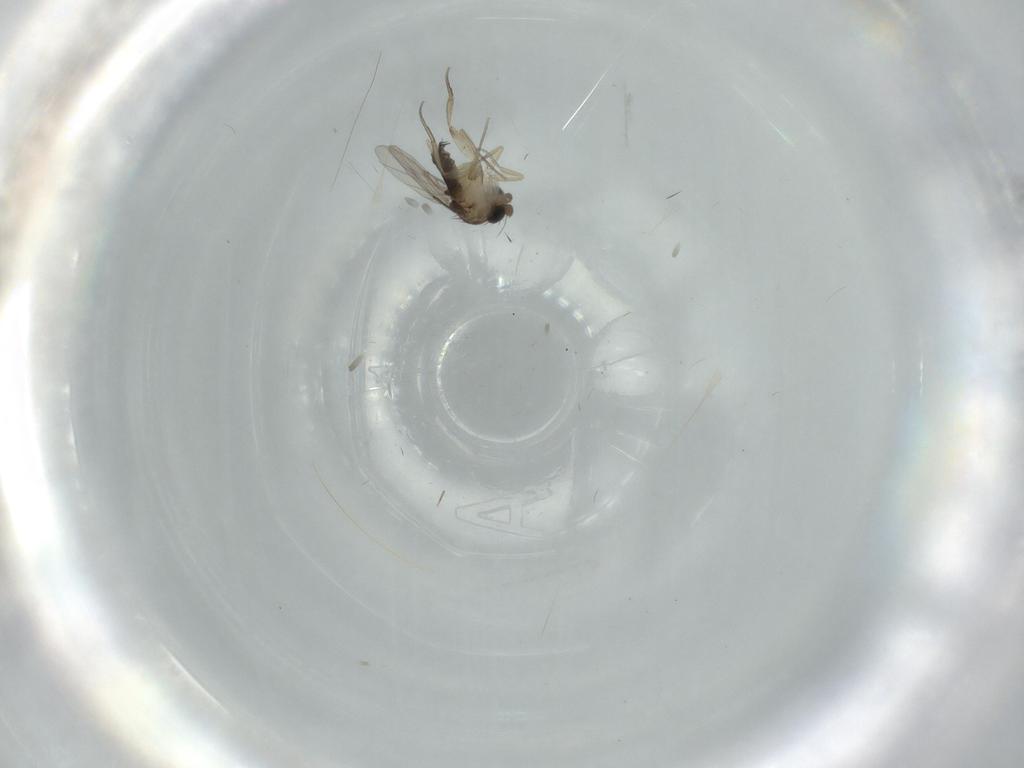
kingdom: Animalia
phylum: Arthropoda
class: Insecta
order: Diptera
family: Phoridae
